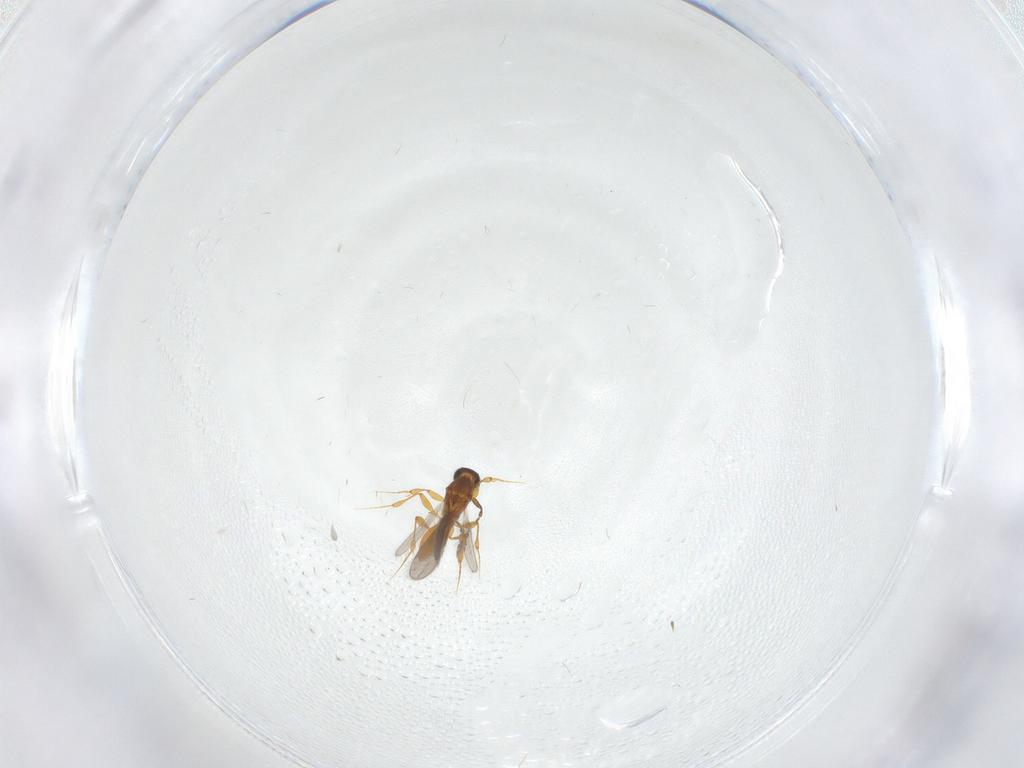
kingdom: Animalia
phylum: Arthropoda
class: Insecta
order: Hymenoptera
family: Platygastridae
